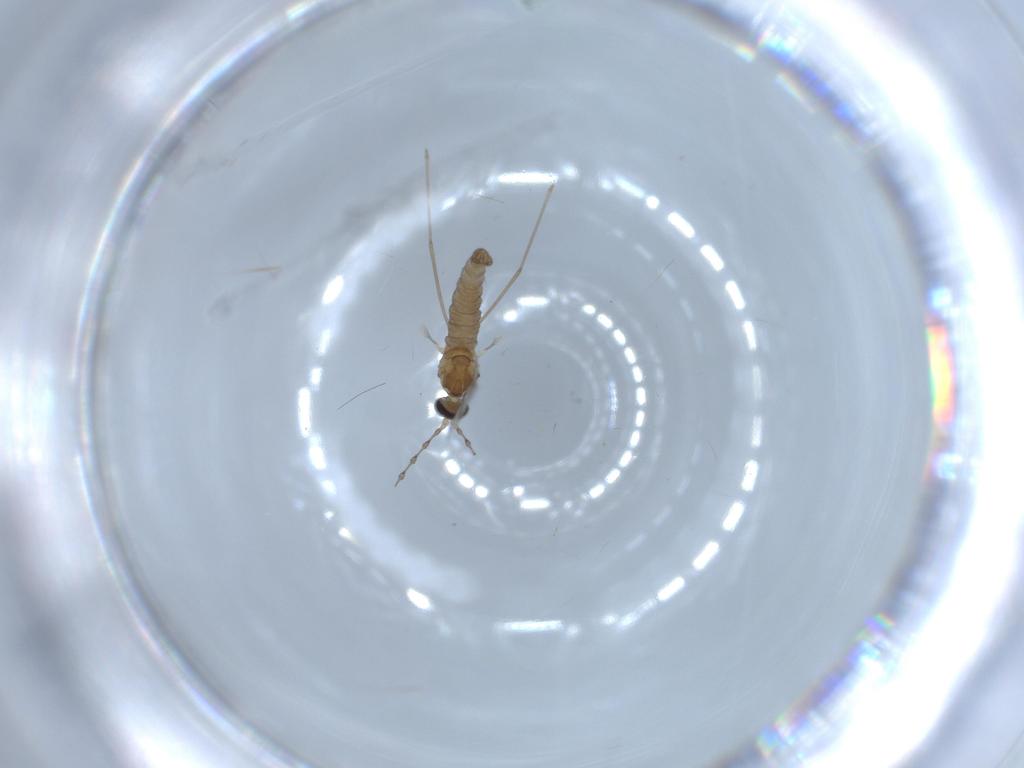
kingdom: Animalia
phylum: Arthropoda
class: Insecta
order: Diptera
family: Cecidomyiidae
